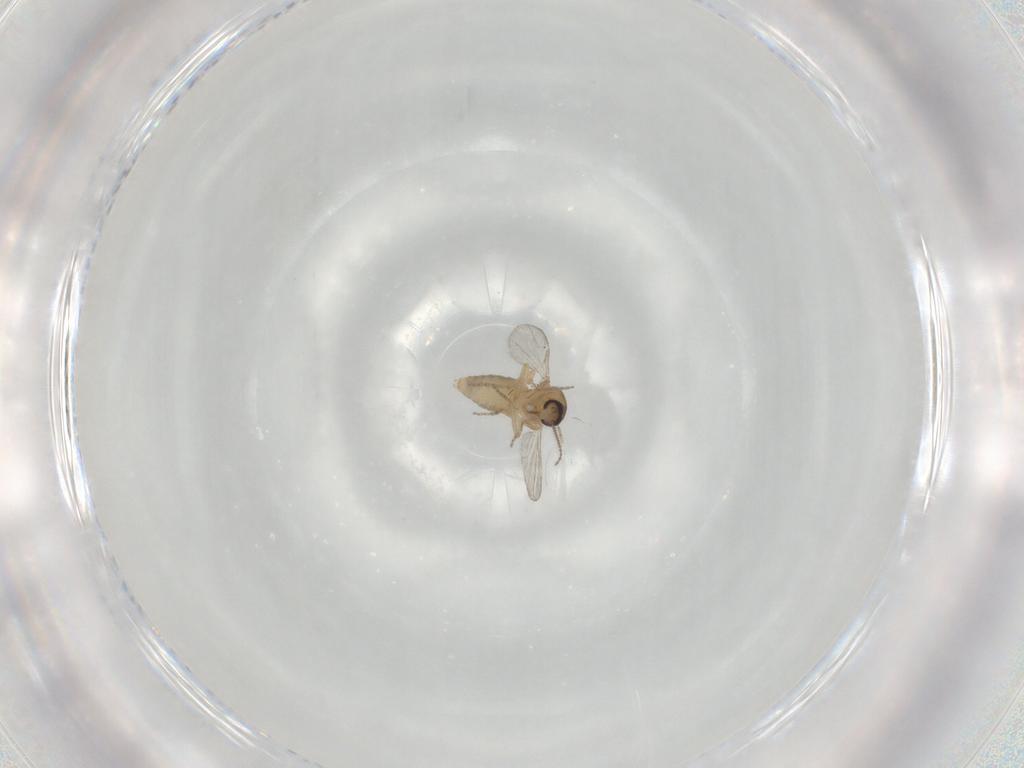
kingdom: Animalia
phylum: Arthropoda
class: Insecta
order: Diptera
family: Ceratopogonidae
